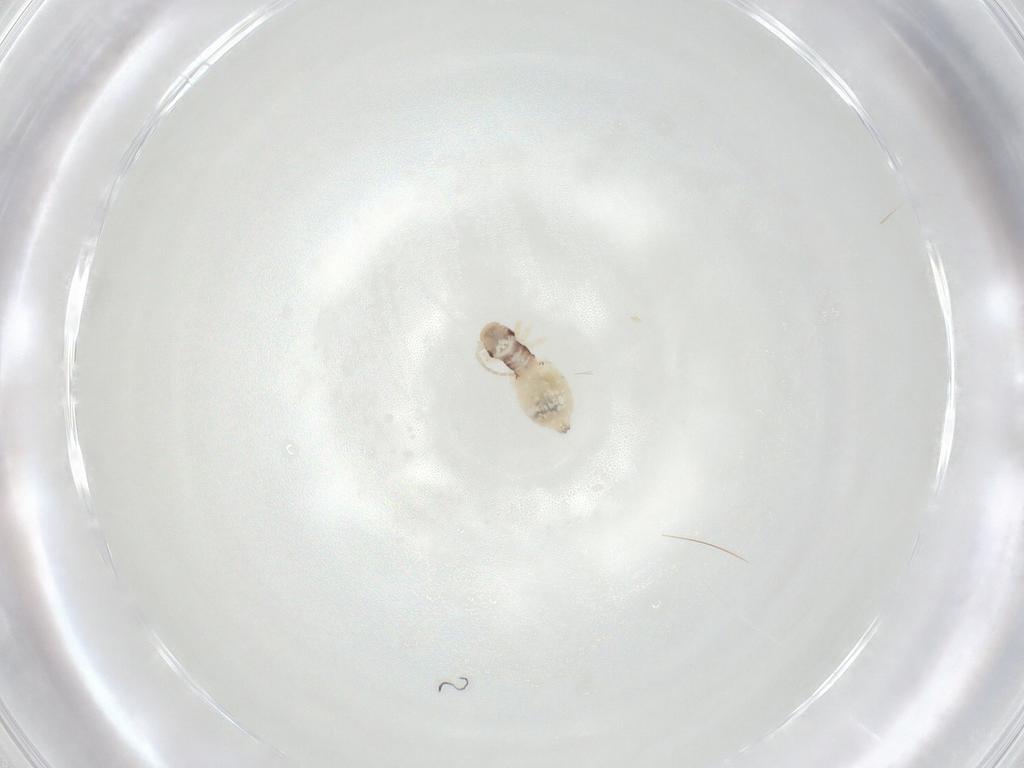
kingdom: Animalia
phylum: Arthropoda
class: Insecta
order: Psocodea
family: Amphipsocidae
